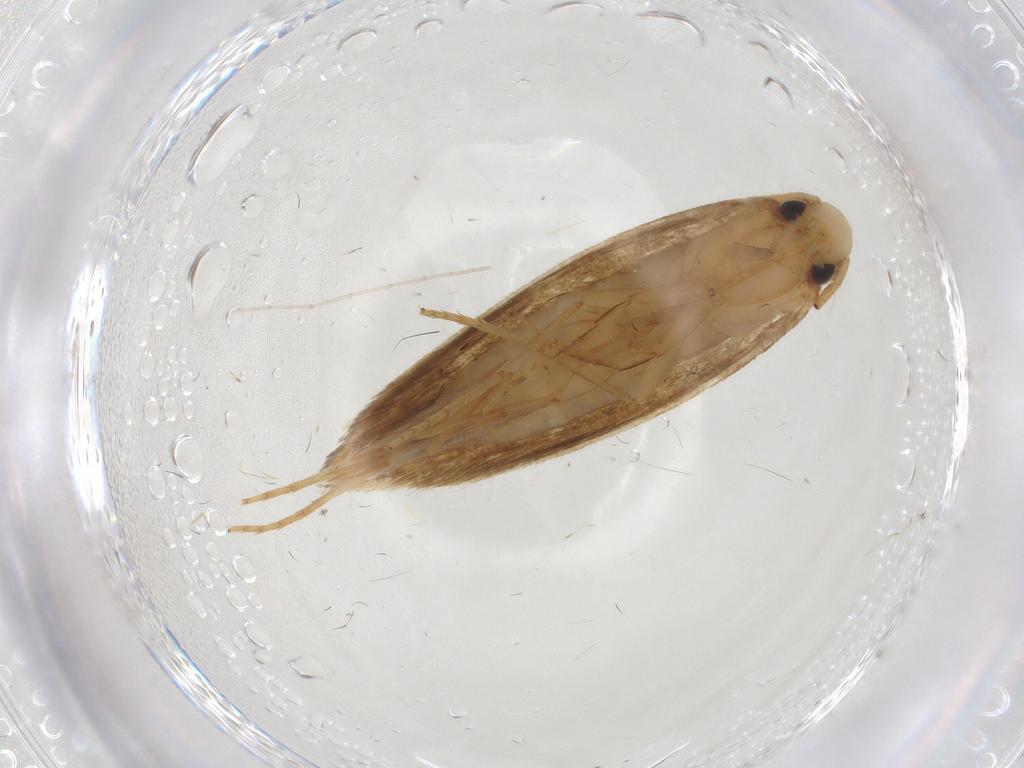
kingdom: Animalia
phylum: Arthropoda
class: Insecta
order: Lepidoptera
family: Tineidae
